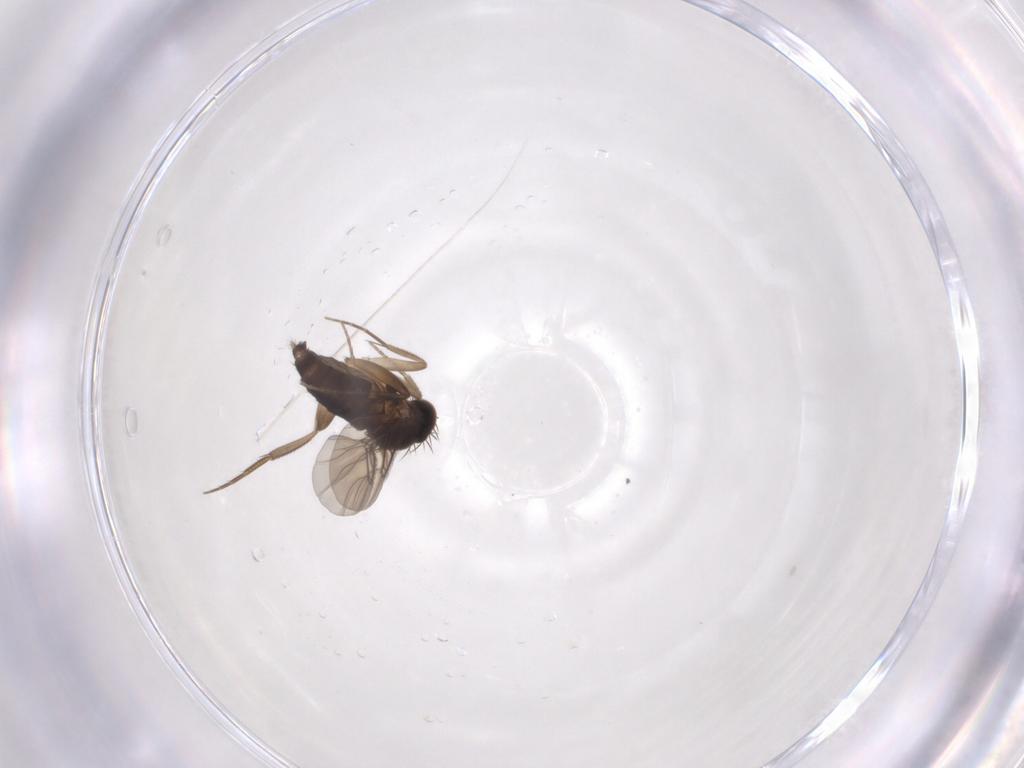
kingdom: Animalia
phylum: Arthropoda
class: Insecta
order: Diptera
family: Phoridae
